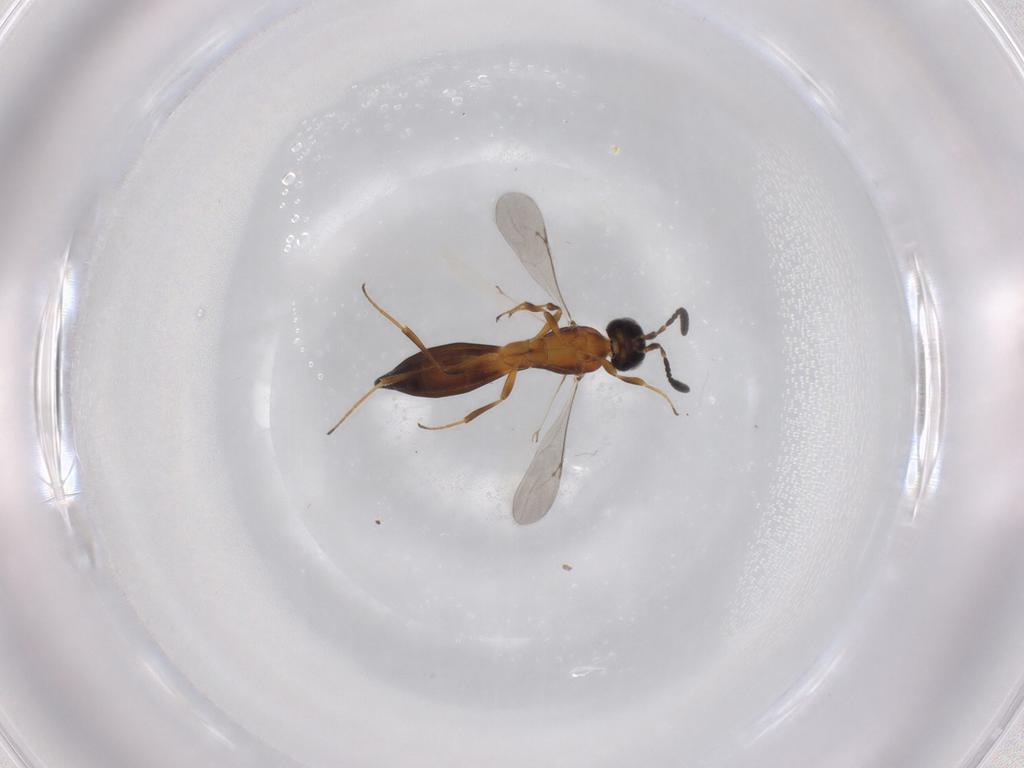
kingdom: Animalia
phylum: Arthropoda
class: Insecta
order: Hymenoptera
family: Scelionidae
